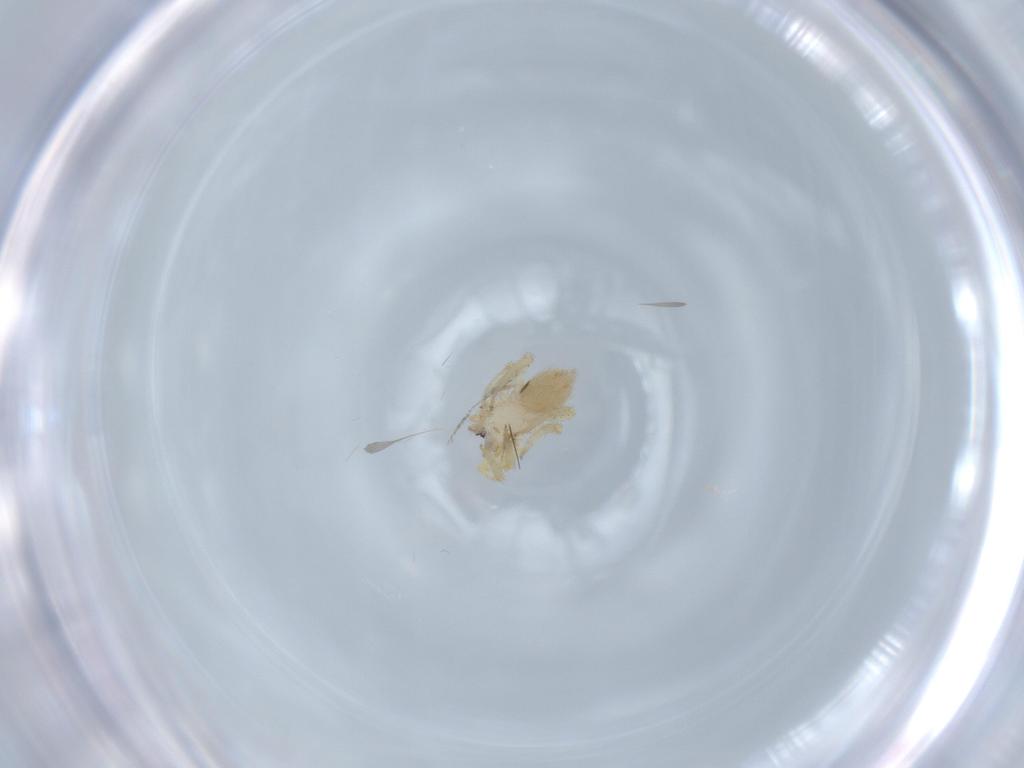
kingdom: Animalia
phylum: Arthropoda
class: Arachnida
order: Araneae
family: Oonopidae
